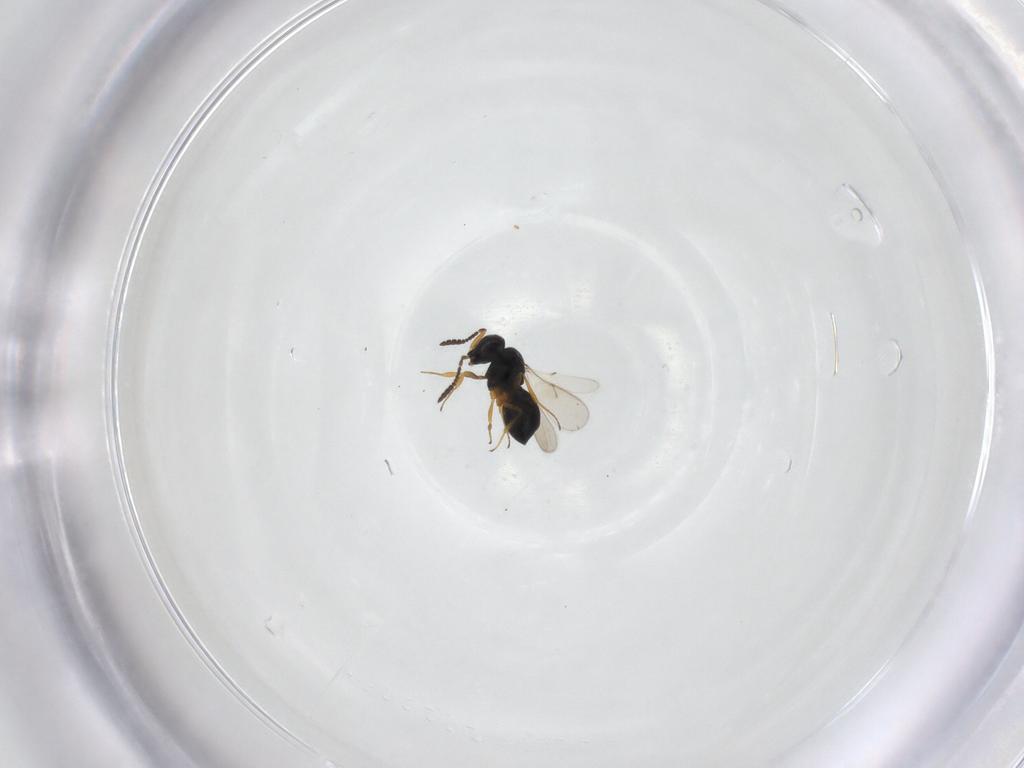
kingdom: Animalia
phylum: Arthropoda
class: Insecta
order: Hymenoptera
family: Scelionidae
